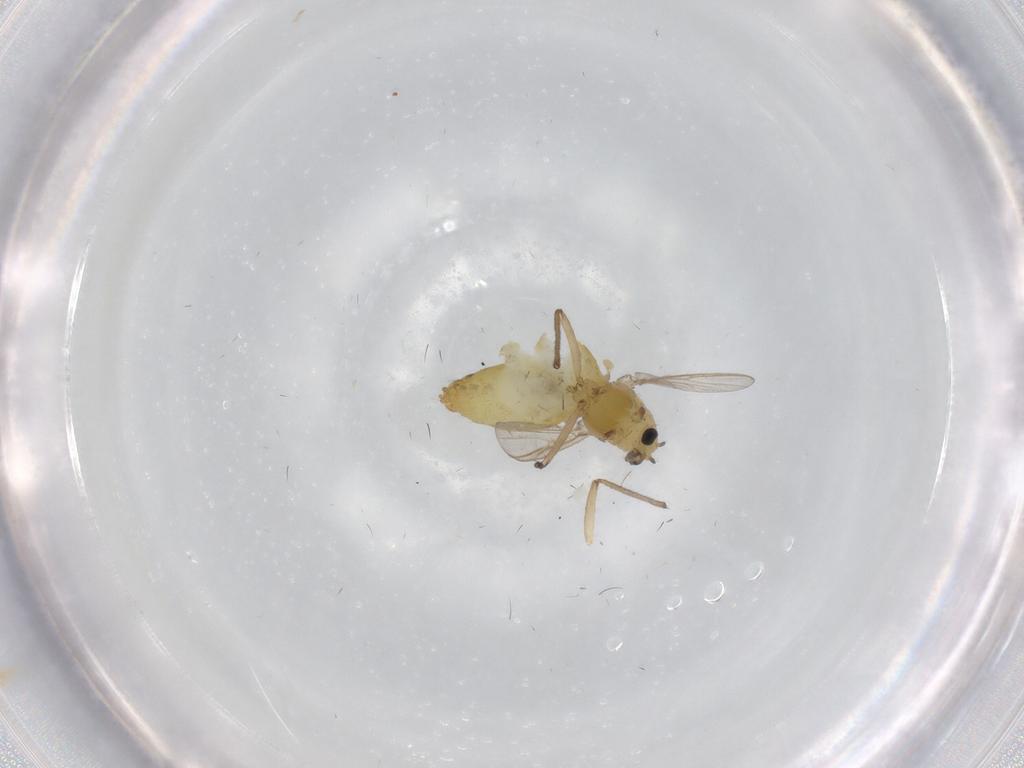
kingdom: Animalia
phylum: Arthropoda
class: Insecta
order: Diptera
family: Chironomidae
